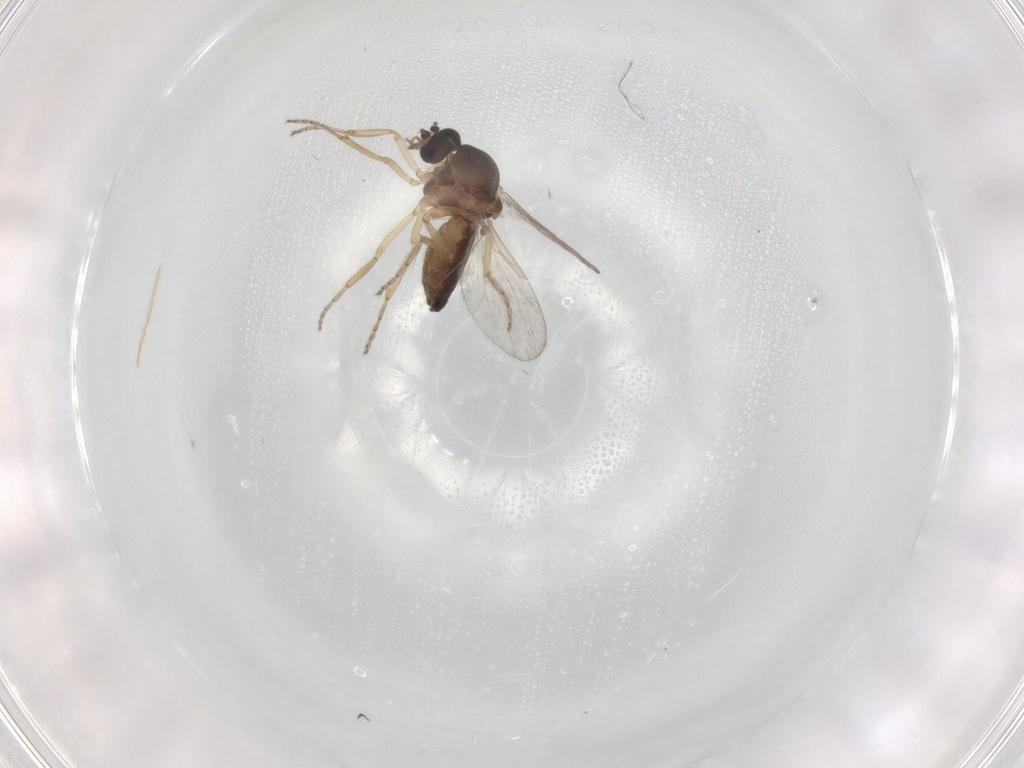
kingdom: Animalia
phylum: Arthropoda
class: Insecta
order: Diptera
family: Ceratopogonidae
